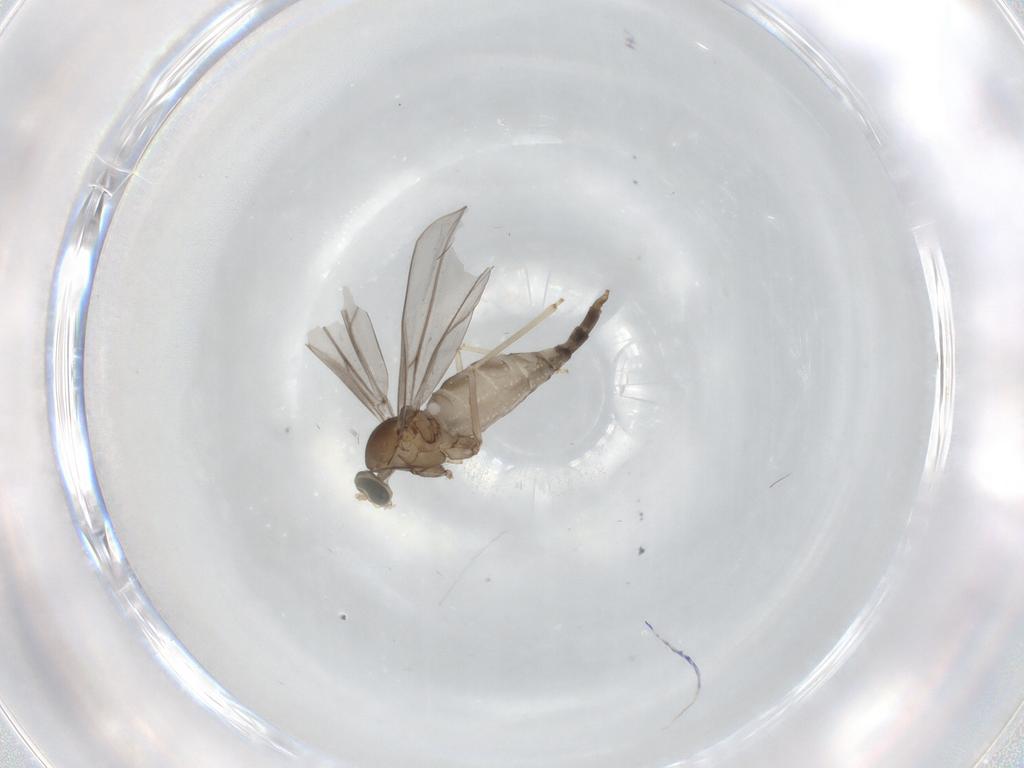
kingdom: Animalia
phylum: Arthropoda
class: Insecta
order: Diptera
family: Cecidomyiidae
